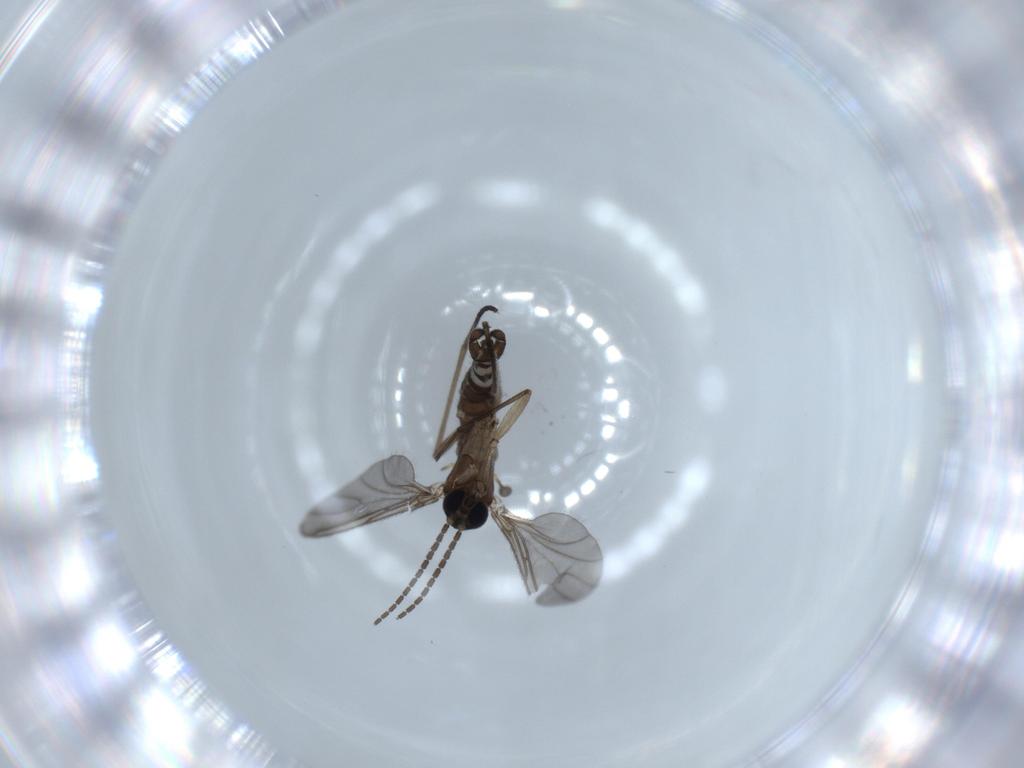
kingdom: Animalia
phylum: Arthropoda
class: Insecta
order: Diptera
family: Sciaridae
